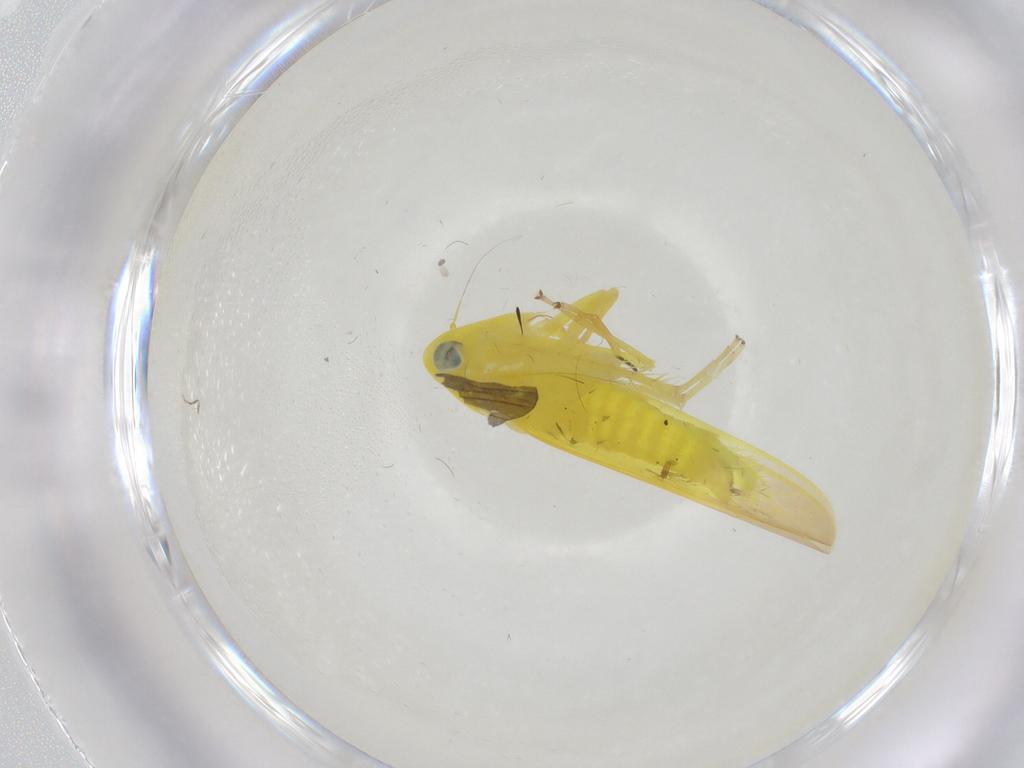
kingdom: Animalia
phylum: Arthropoda
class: Insecta
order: Hemiptera
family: Cicadellidae
